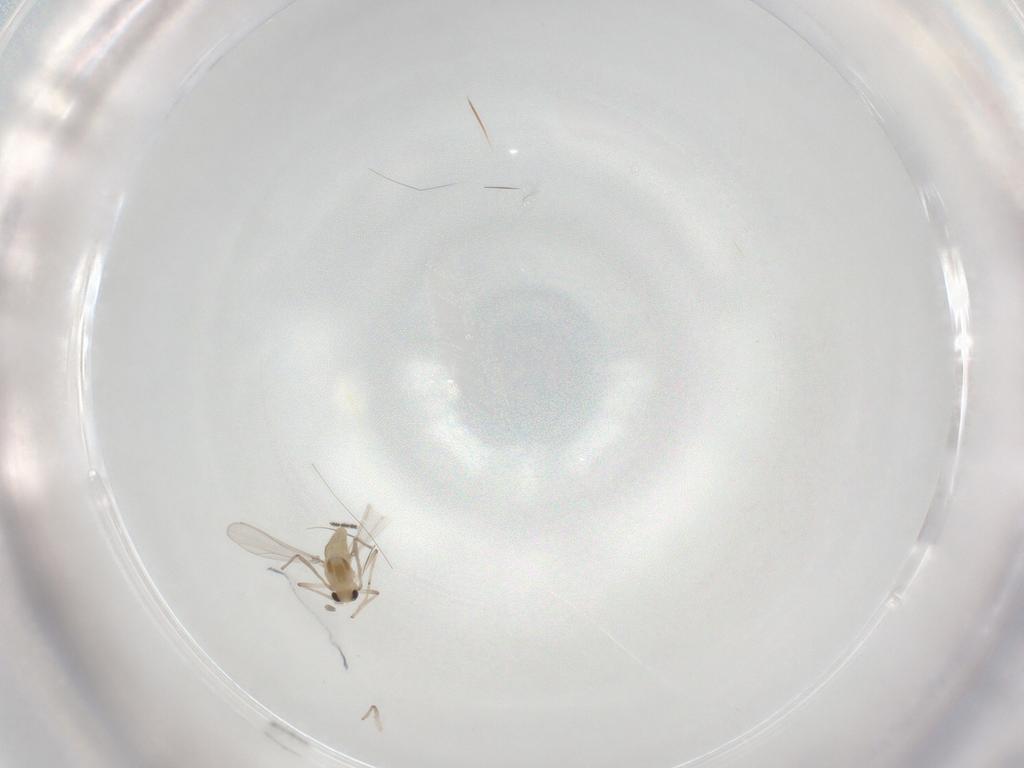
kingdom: Animalia
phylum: Arthropoda
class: Insecta
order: Diptera
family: Chironomidae
